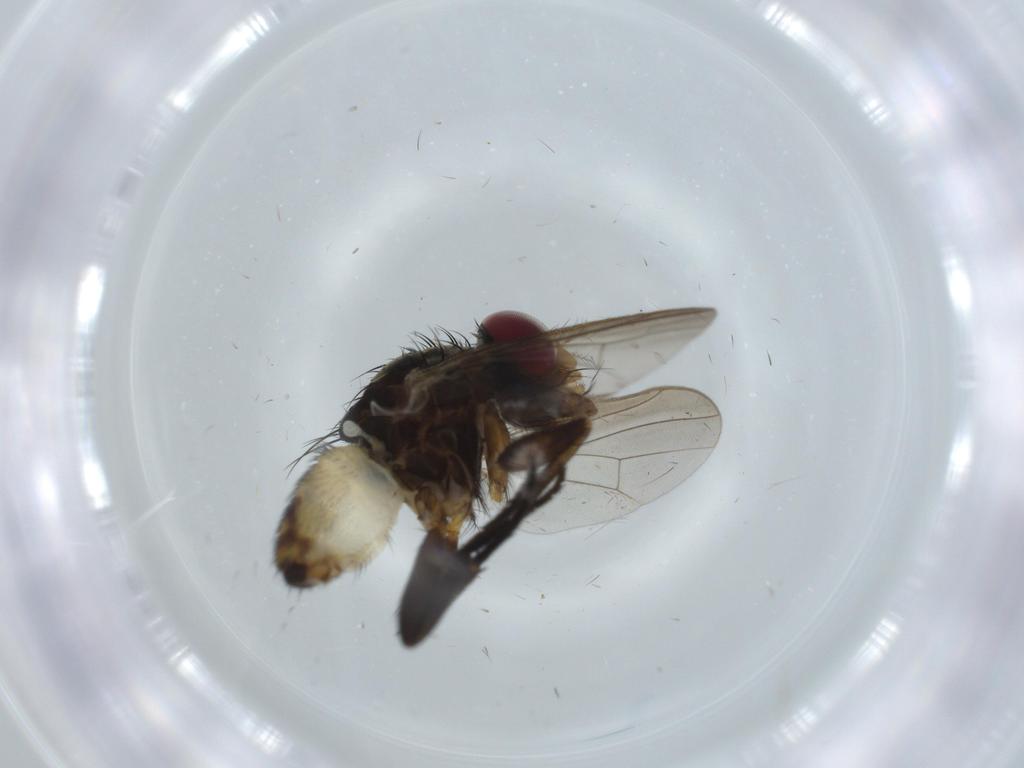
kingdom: Animalia
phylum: Arthropoda
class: Insecta
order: Diptera
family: Anthomyiidae
